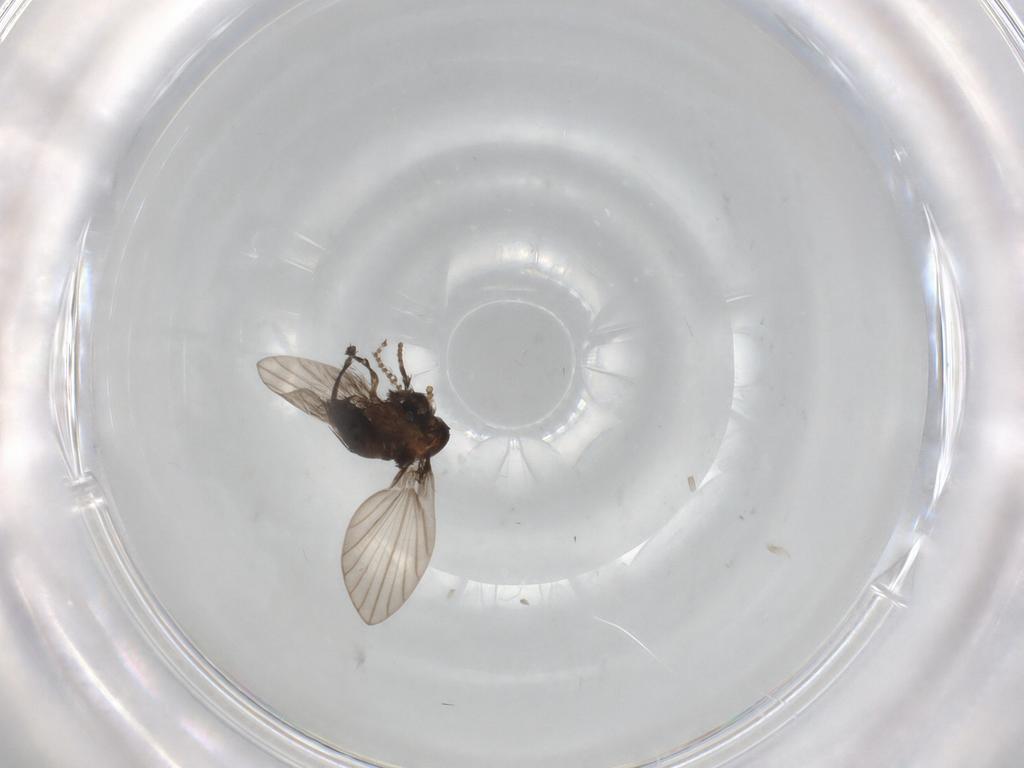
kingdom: Animalia
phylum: Arthropoda
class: Insecta
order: Diptera
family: Psychodidae
